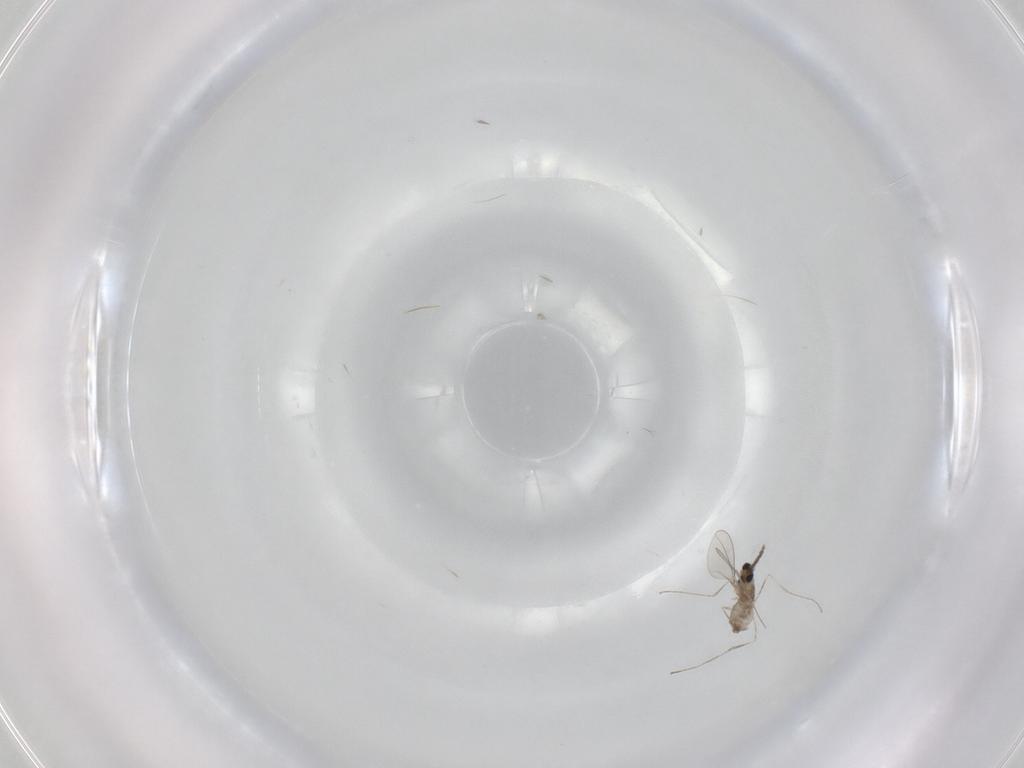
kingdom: Animalia
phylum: Arthropoda
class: Insecta
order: Diptera
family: Cecidomyiidae
